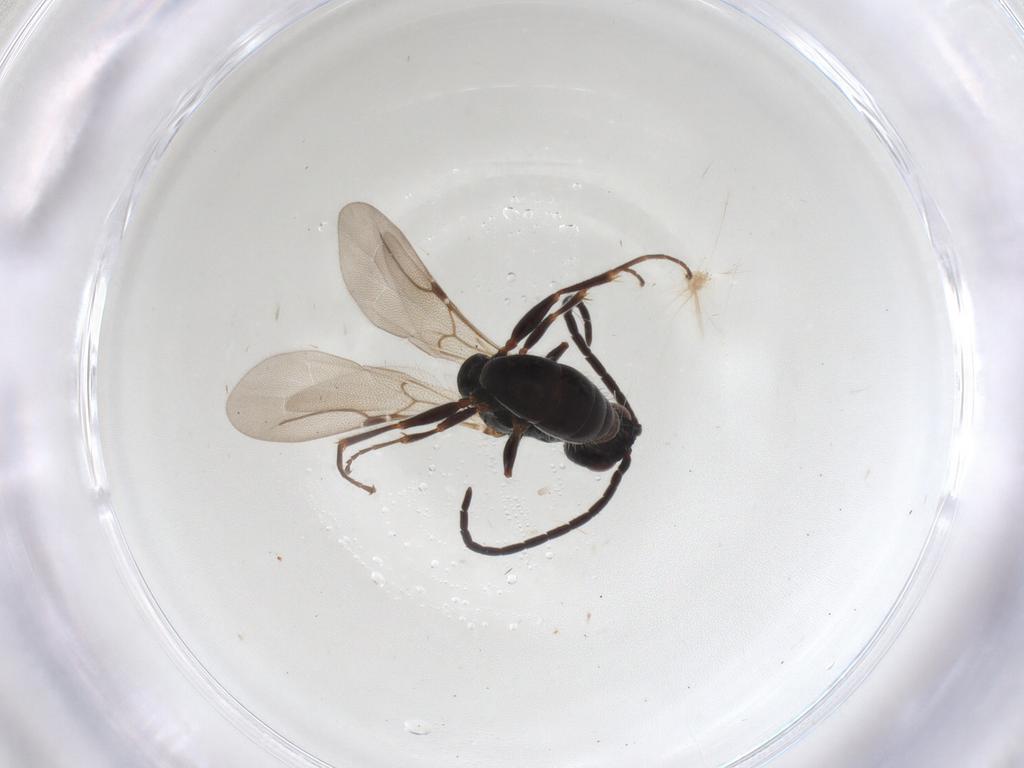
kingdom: Animalia
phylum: Arthropoda
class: Insecta
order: Hymenoptera
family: Bethylidae
